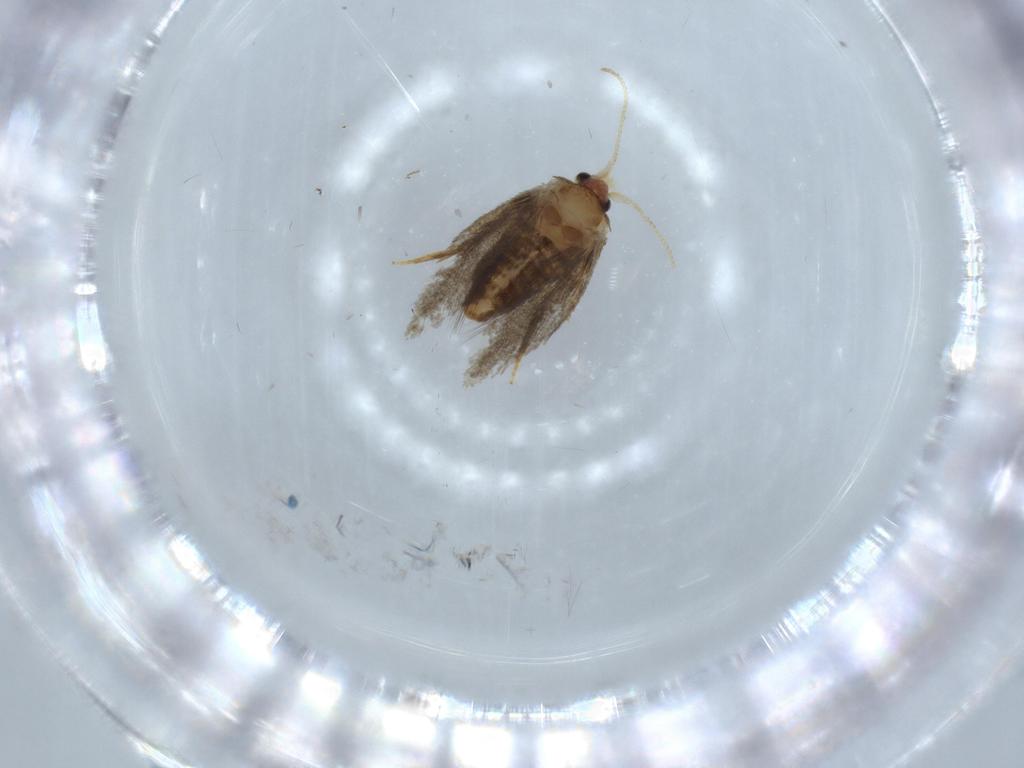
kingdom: Animalia
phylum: Arthropoda
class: Insecta
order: Lepidoptera
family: Nepticulidae
